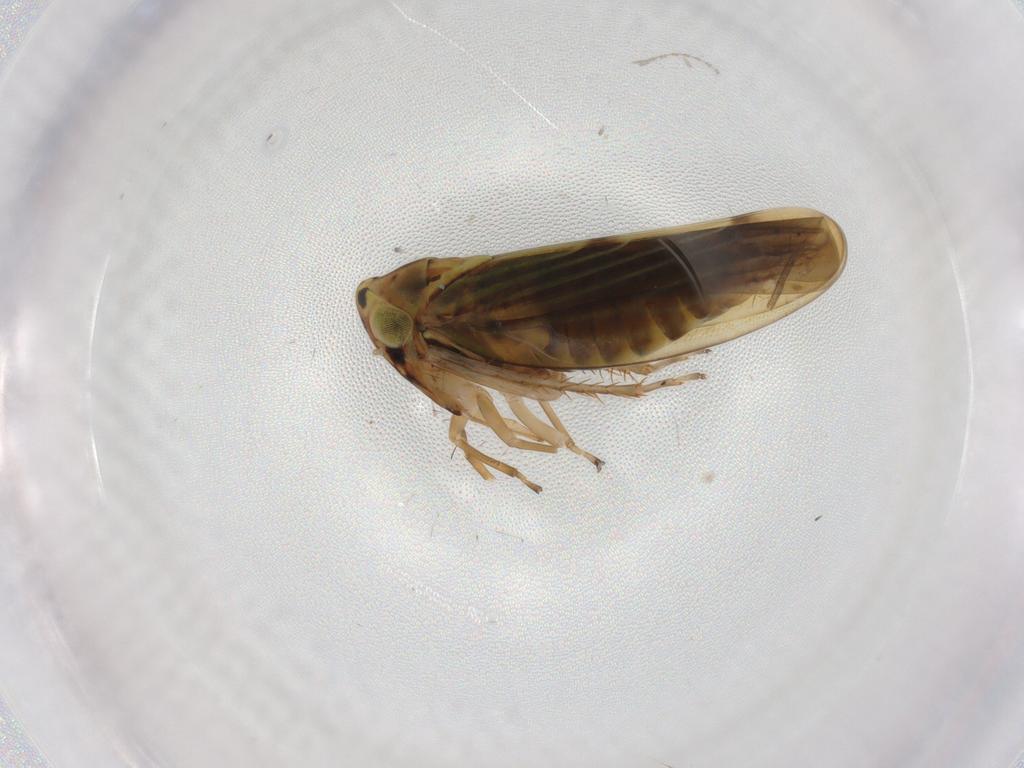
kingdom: Animalia
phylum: Arthropoda
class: Insecta
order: Hemiptera
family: Cicadellidae
